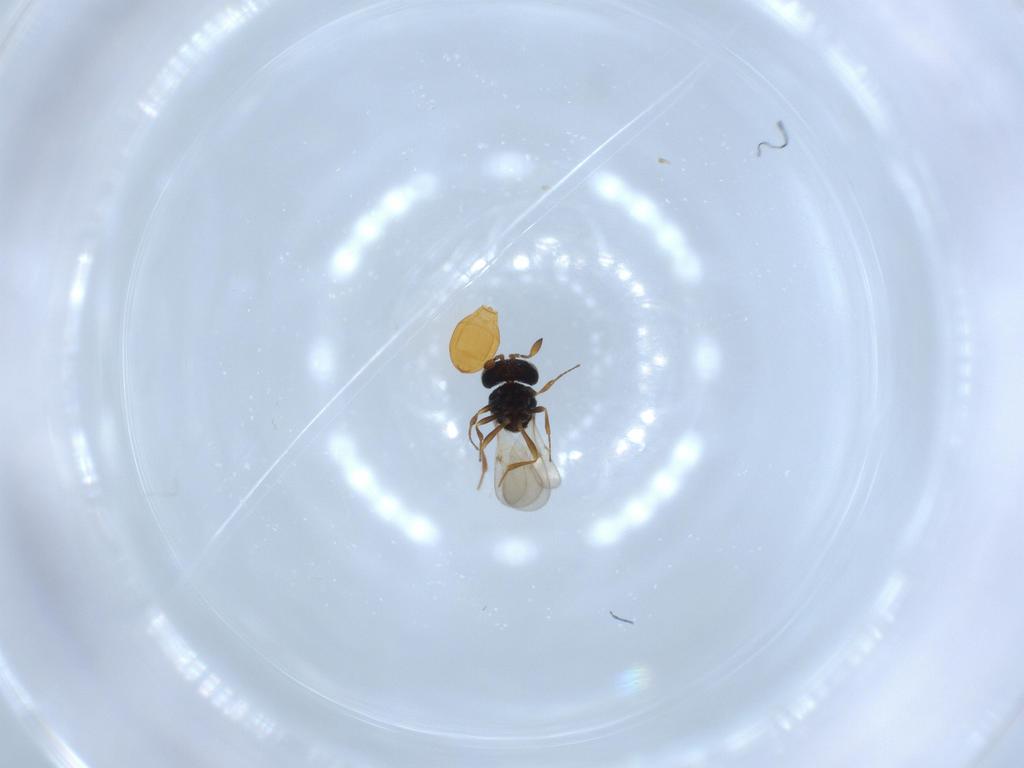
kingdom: Animalia
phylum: Arthropoda
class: Insecta
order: Hymenoptera
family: Scelionidae
